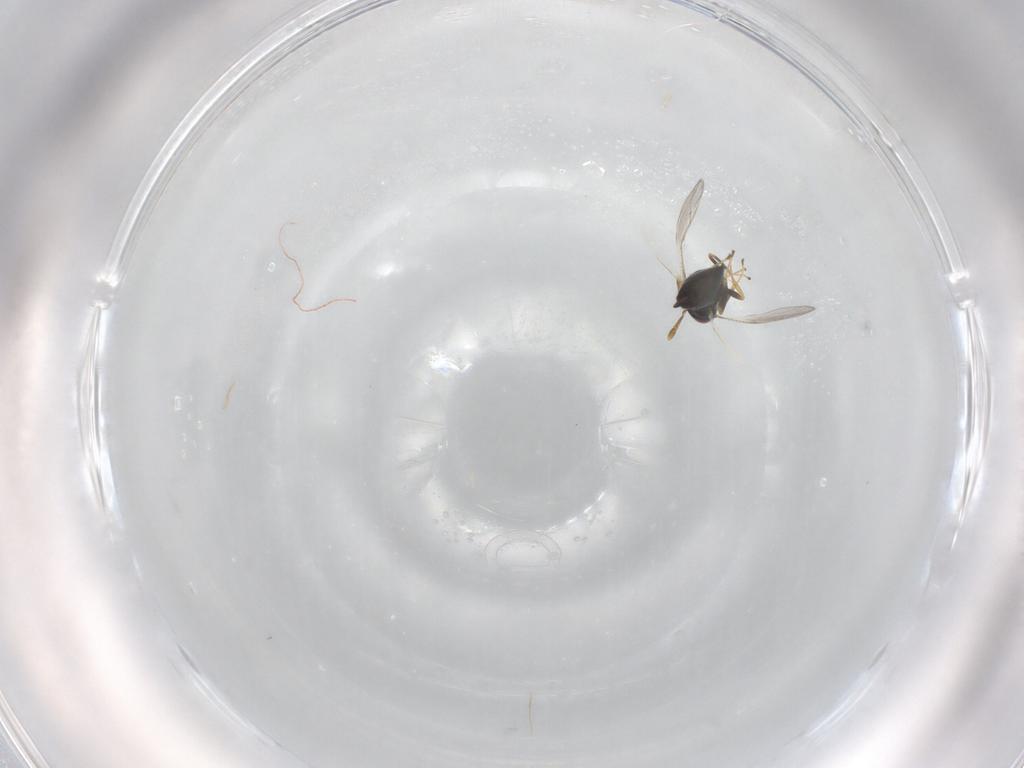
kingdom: Animalia
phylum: Arthropoda
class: Insecta
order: Hymenoptera
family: Pteromalidae
